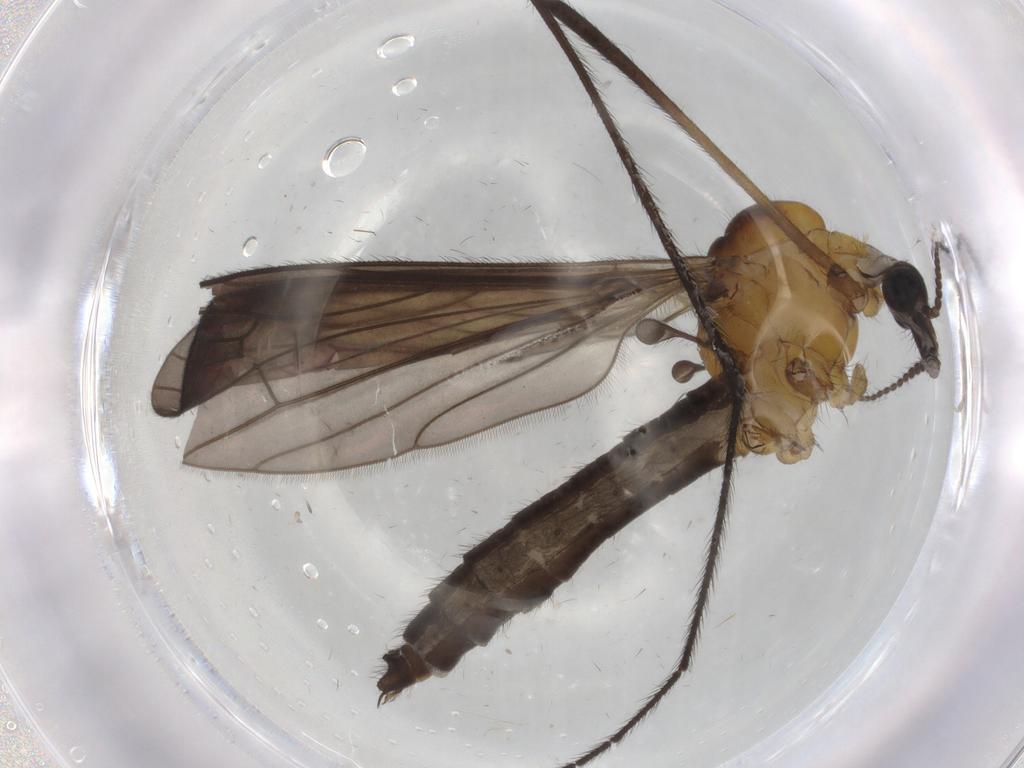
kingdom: Animalia
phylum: Arthropoda
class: Insecta
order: Diptera
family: Limoniidae
